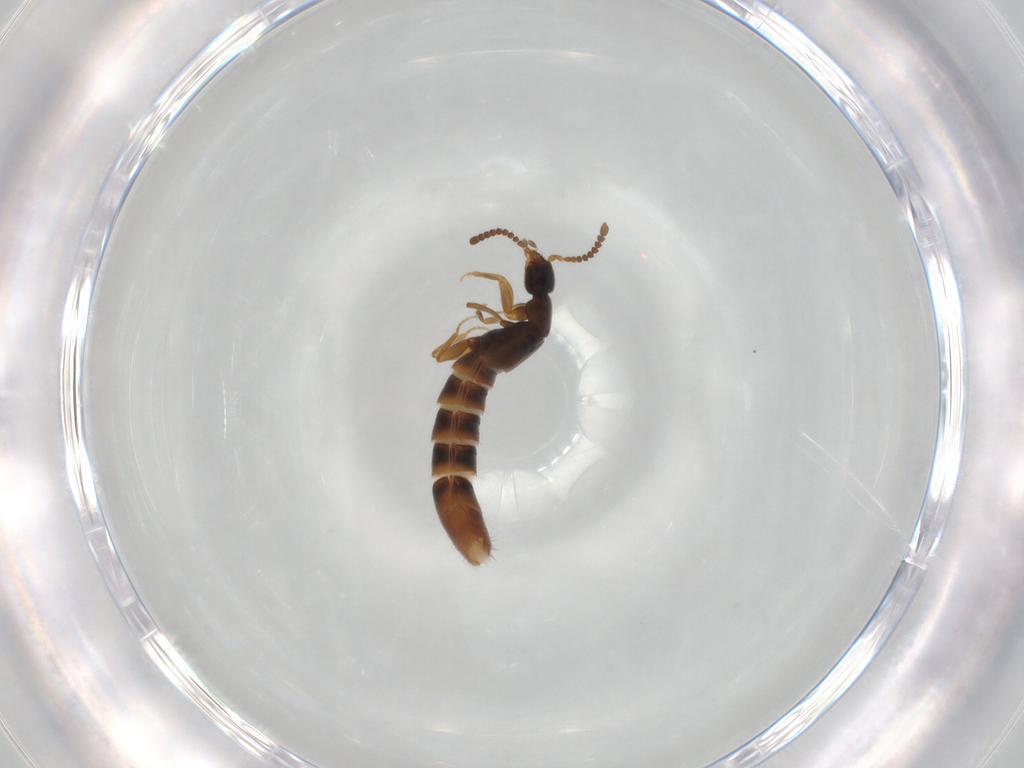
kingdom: Animalia
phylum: Arthropoda
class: Insecta
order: Coleoptera
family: Staphylinidae
